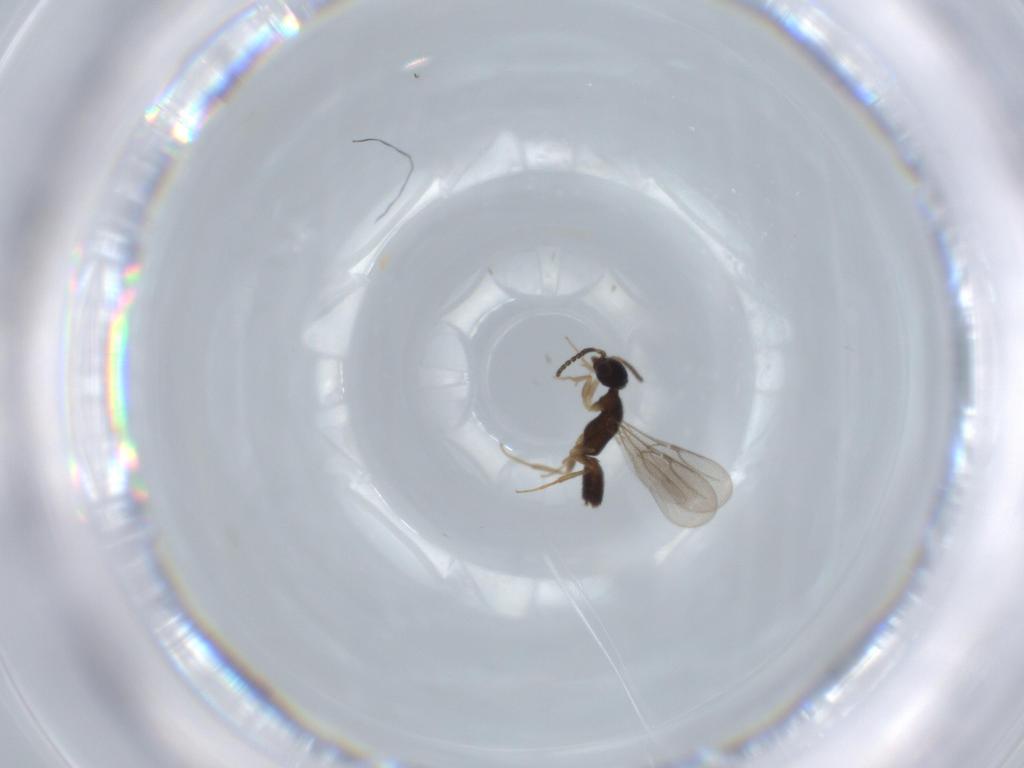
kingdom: Animalia
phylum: Arthropoda
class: Insecta
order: Hymenoptera
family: Bethylidae
